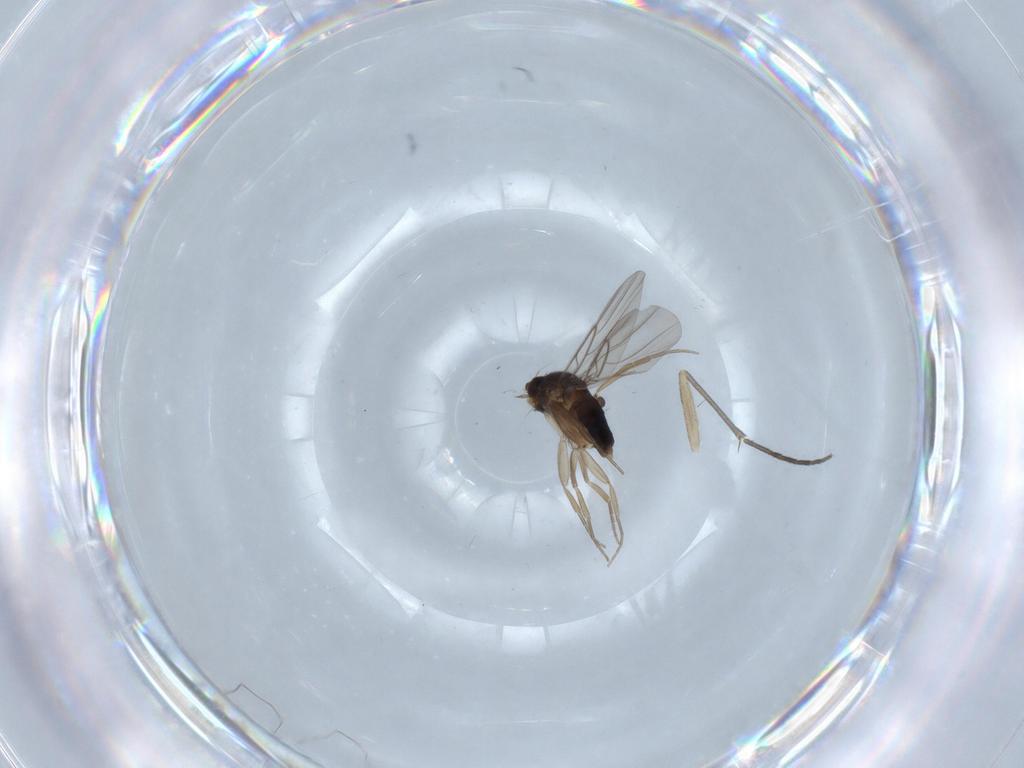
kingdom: Animalia
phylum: Arthropoda
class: Insecta
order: Diptera
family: Phoridae
